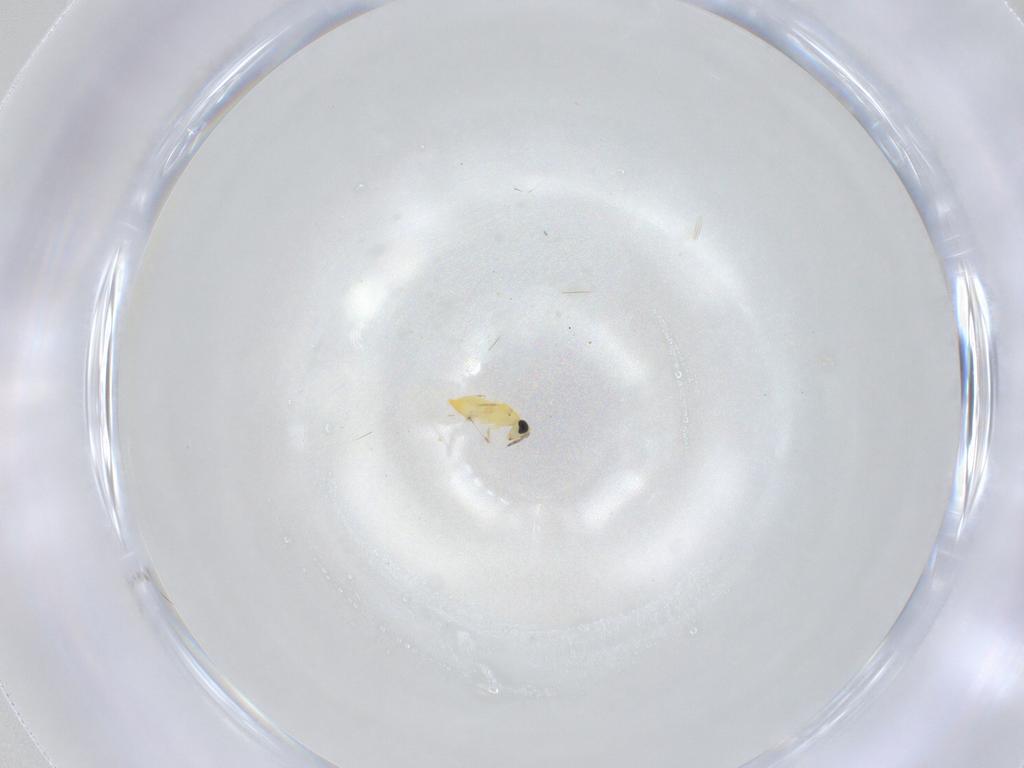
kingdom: Animalia
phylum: Arthropoda
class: Insecta
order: Hymenoptera
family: Trichogrammatidae
